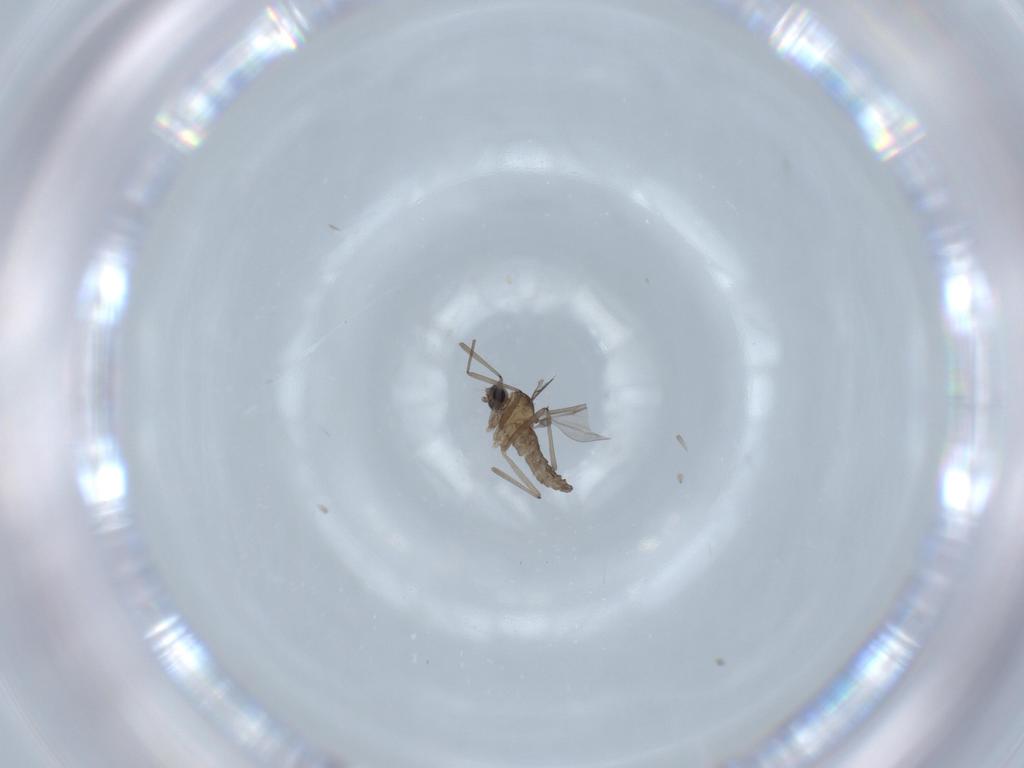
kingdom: Animalia
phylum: Arthropoda
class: Insecta
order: Diptera
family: Cecidomyiidae
